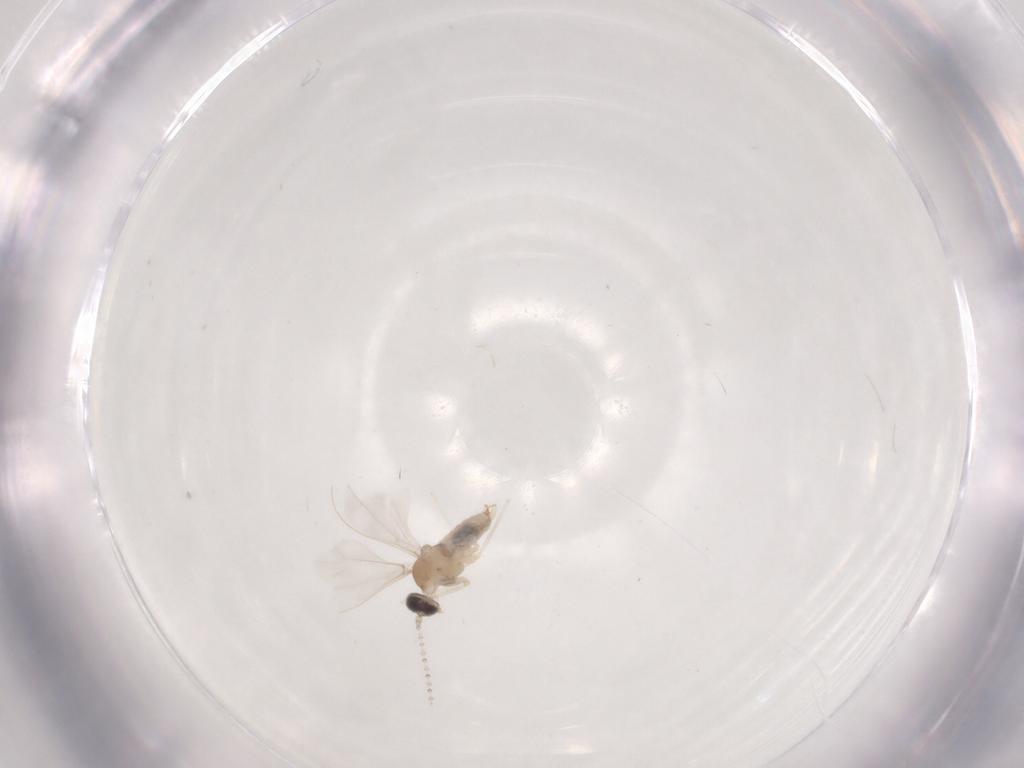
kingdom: Animalia
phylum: Arthropoda
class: Insecta
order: Diptera
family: Cecidomyiidae
